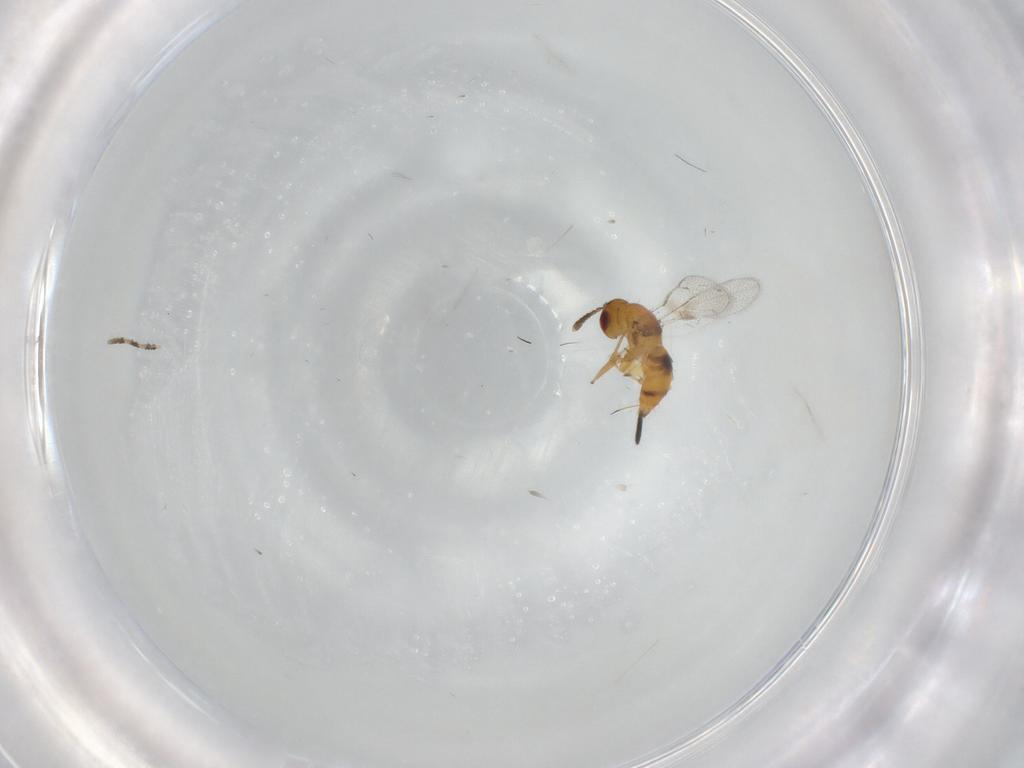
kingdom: Animalia
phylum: Arthropoda
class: Insecta
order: Hymenoptera
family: Torymidae
